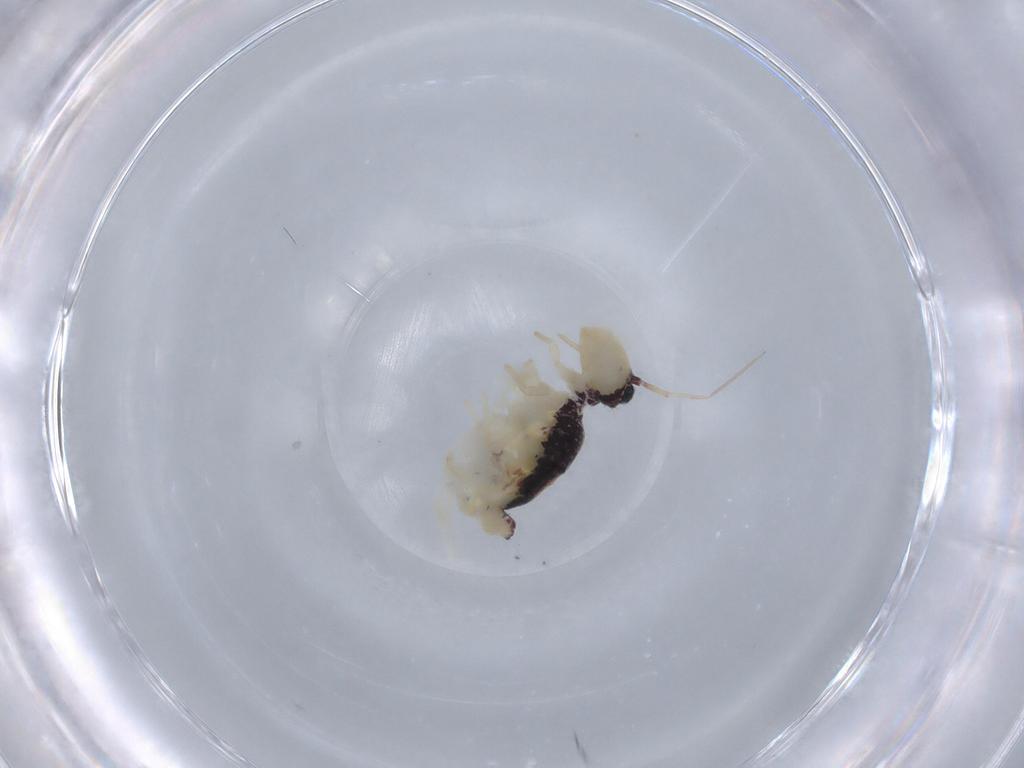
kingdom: Animalia
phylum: Arthropoda
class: Collembola
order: Symphypleona
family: Bourletiellidae
